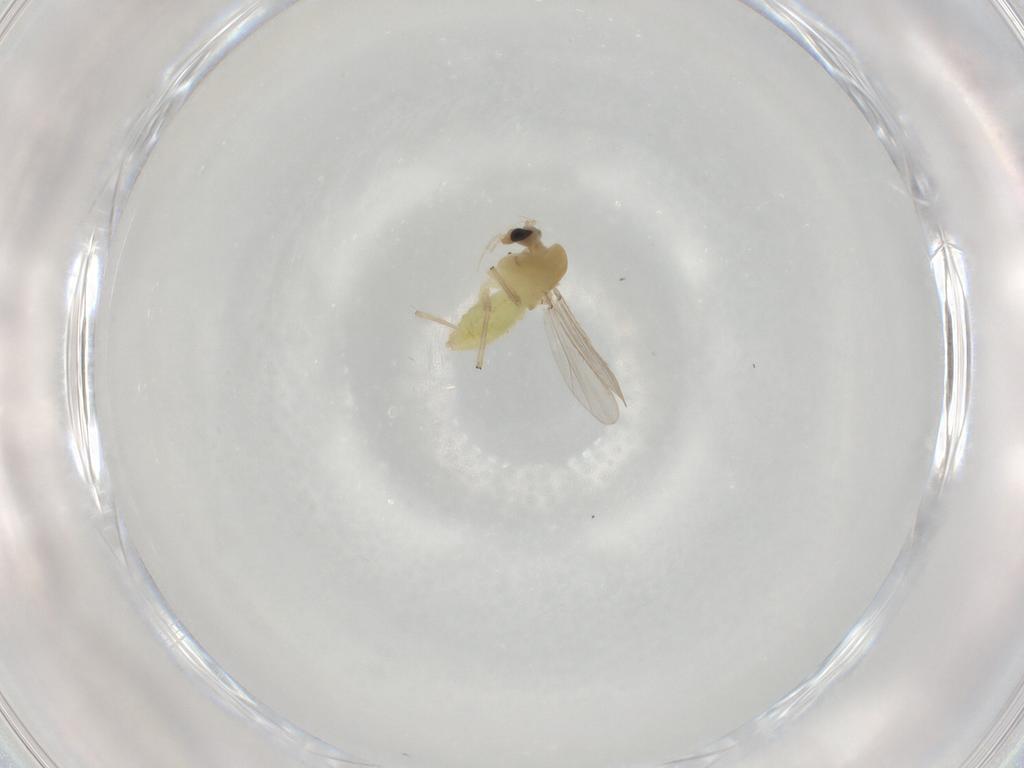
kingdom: Animalia
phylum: Arthropoda
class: Insecta
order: Diptera
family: Chironomidae
